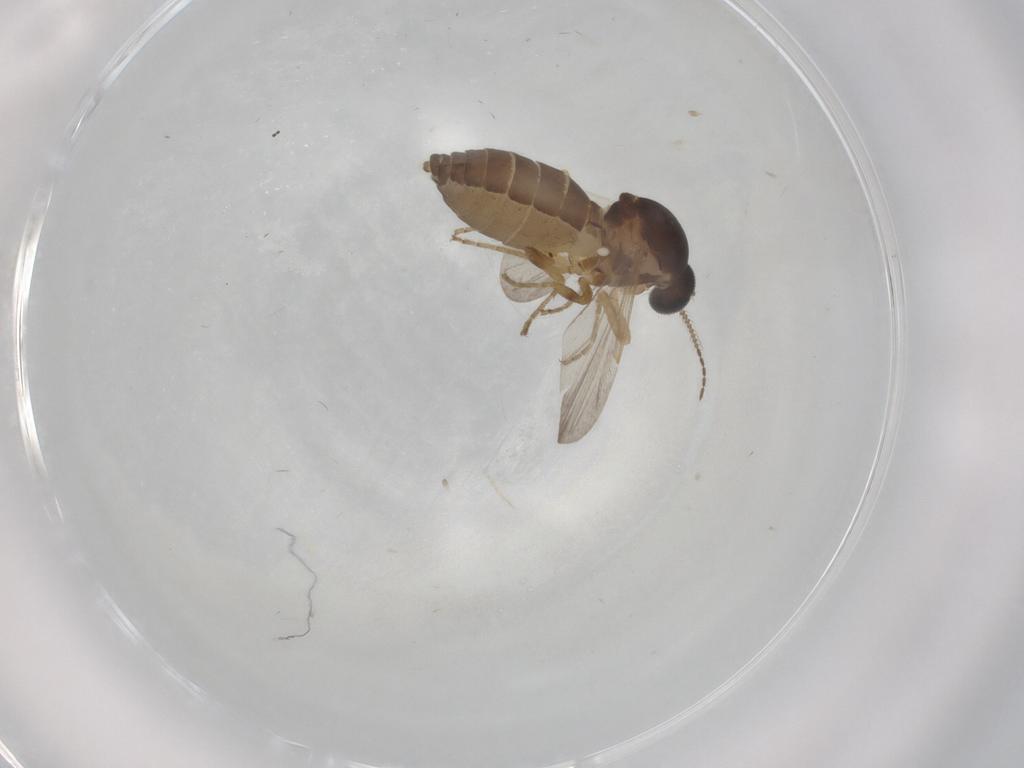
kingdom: Animalia
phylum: Arthropoda
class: Insecta
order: Diptera
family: Ceratopogonidae
